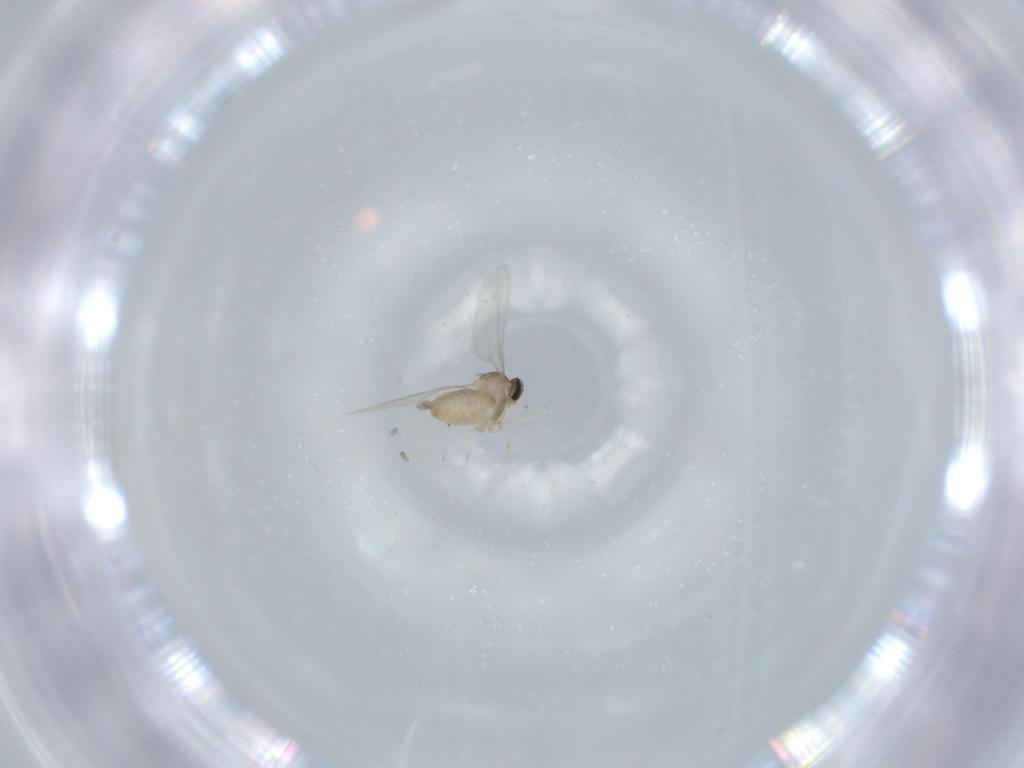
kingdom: Animalia
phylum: Arthropoda
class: Insecta
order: Diptera
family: Cecidomyiidae
